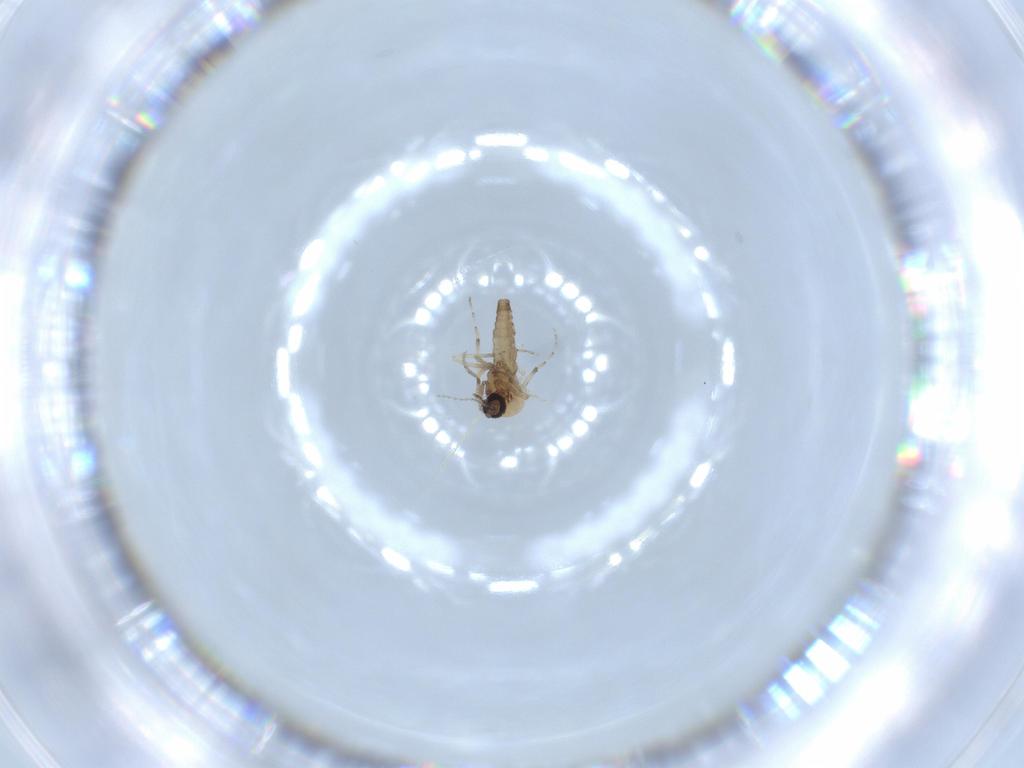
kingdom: Animalia
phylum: Arthropoda
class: Insecta
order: Diptera
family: Ceratopogonidae
